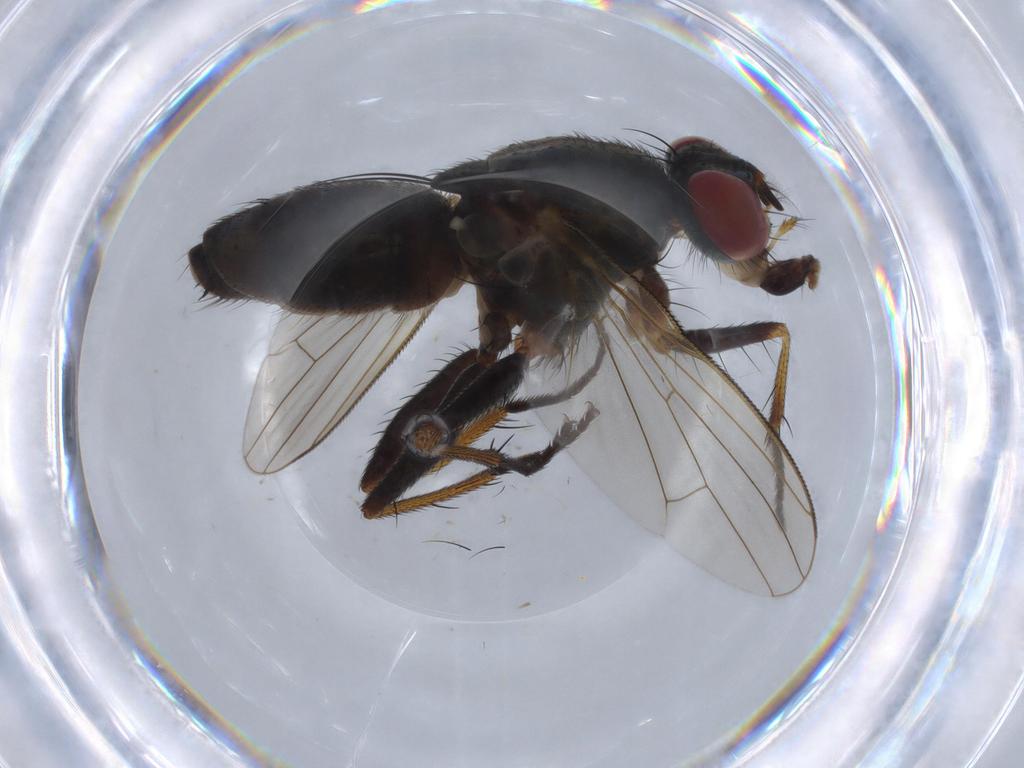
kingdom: Animalia
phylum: Arthropoda
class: Insecta
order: Diptera
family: Muscidae
